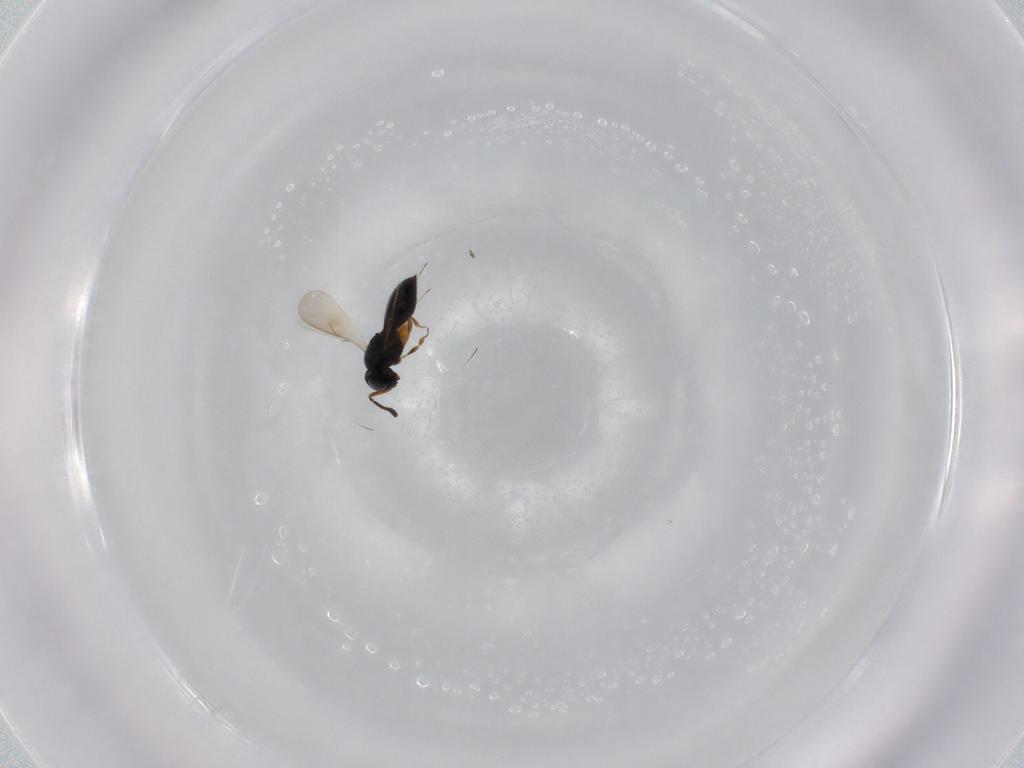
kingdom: Animalia
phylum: Arthropoda
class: Insecta
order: Hymenoptera
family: Scelionidae
